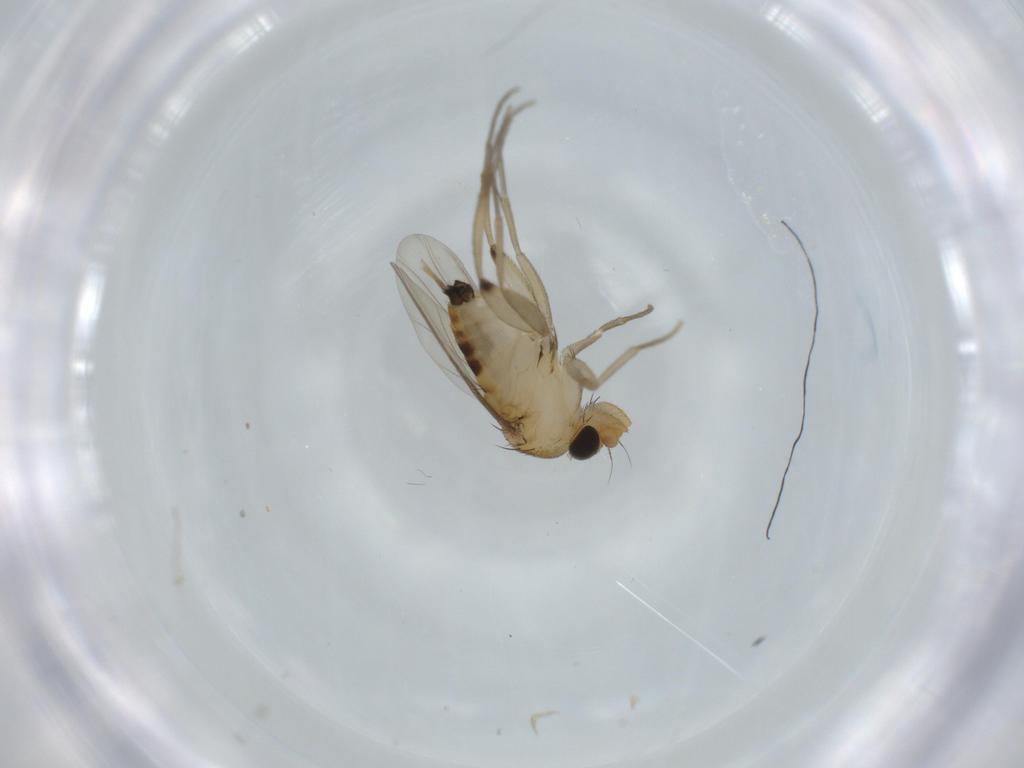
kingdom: Animalia
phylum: Arthropoda
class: Insecta
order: Diptera
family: Phoridae
